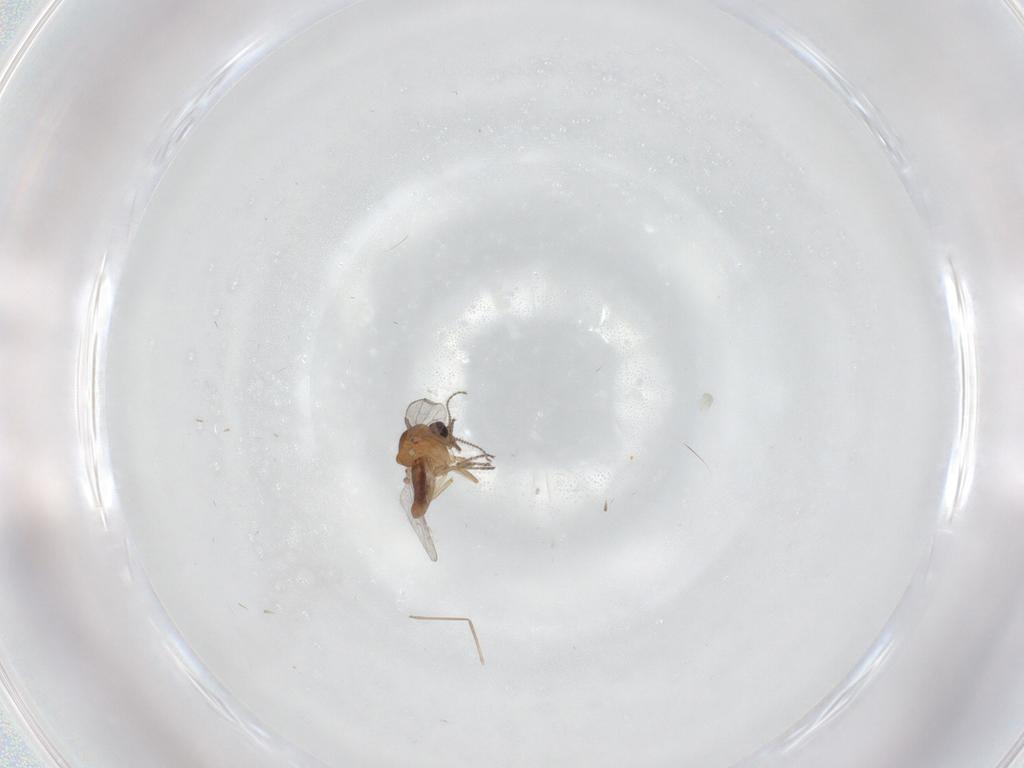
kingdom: Animalia
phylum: Arthropoda
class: Insecta
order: Diptera
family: Ceratopogonidae
